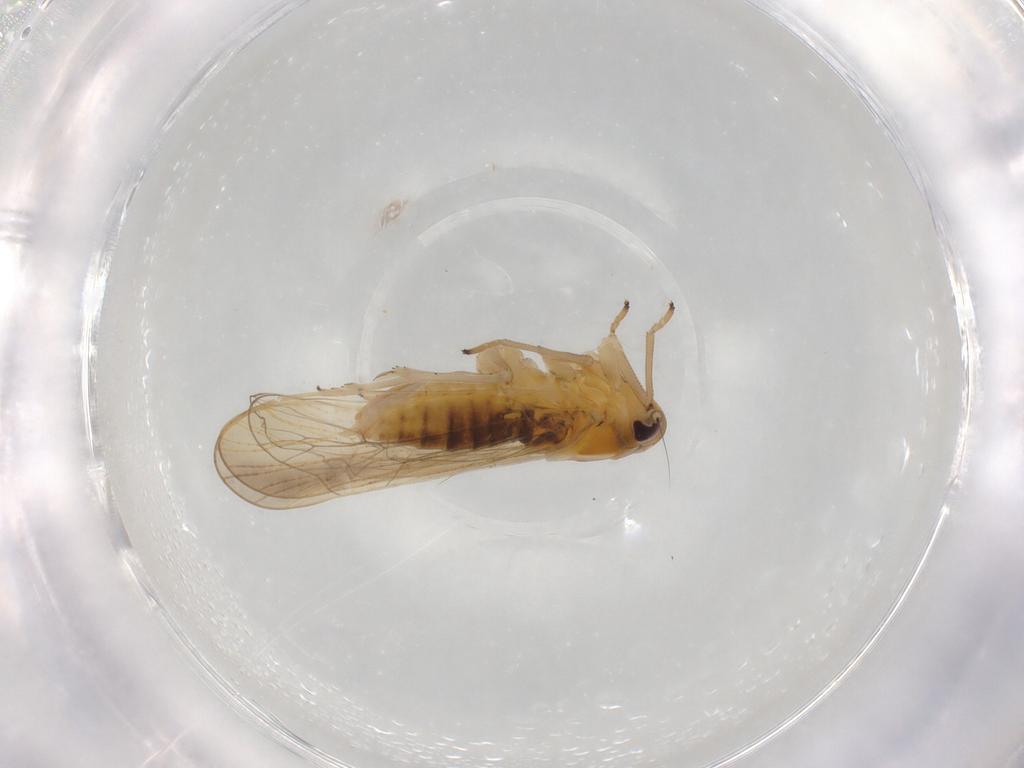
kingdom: Animalia
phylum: Arthropoda
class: Insecta
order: Hemiptera
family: Delphacidae
